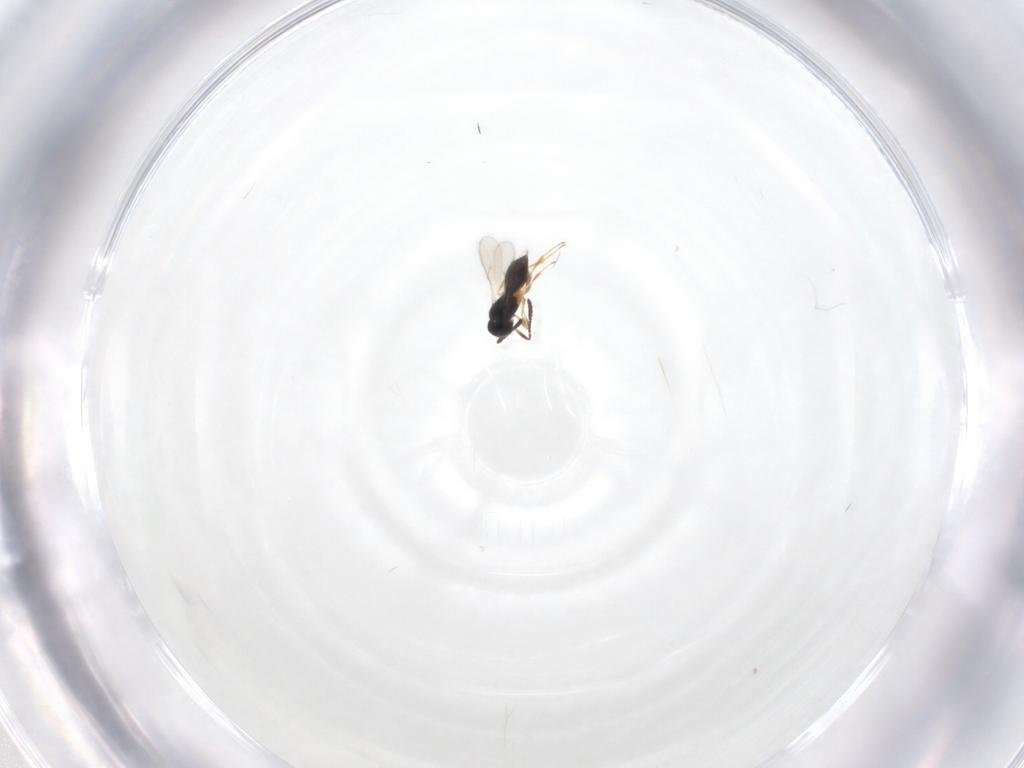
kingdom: Animalia
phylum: Arthropoda
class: Insecta
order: Hymenoptera
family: Scelionidae
